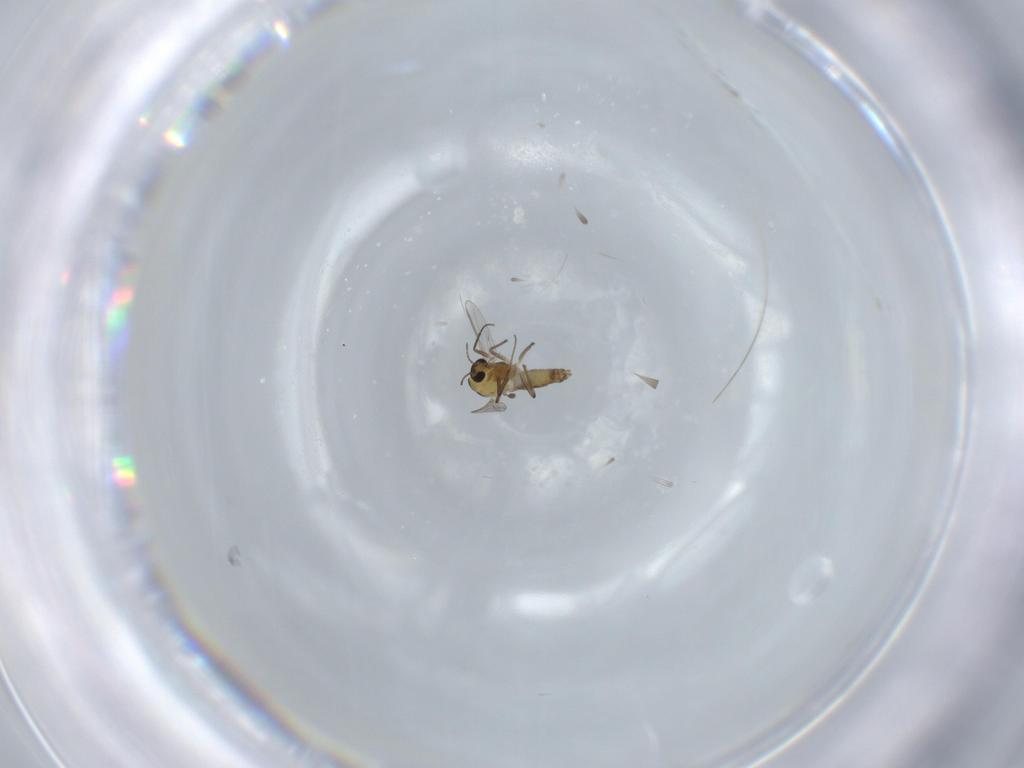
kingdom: Animalia
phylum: Arthropoda
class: Insecta
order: Diptera
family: Chironomidae
